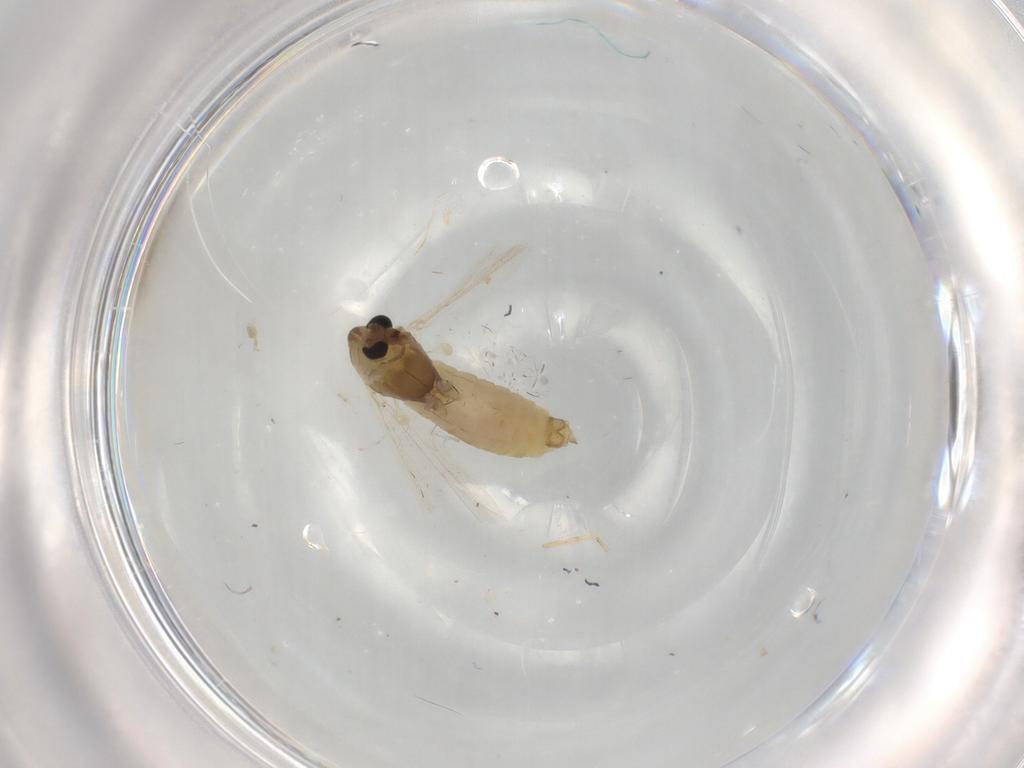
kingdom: Animalia
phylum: Arthropoda
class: Insecta
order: Diptera
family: Chironomidae
